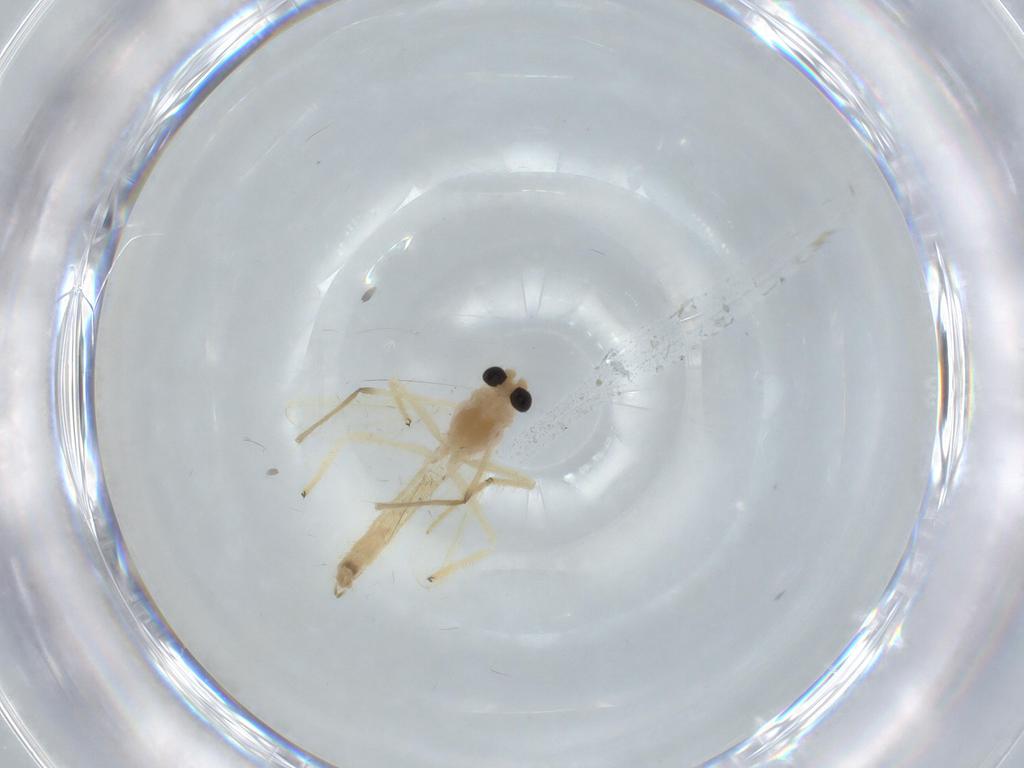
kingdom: Animalia
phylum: Arthropoda
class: Insecta
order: Diptera
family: Chironomidae
